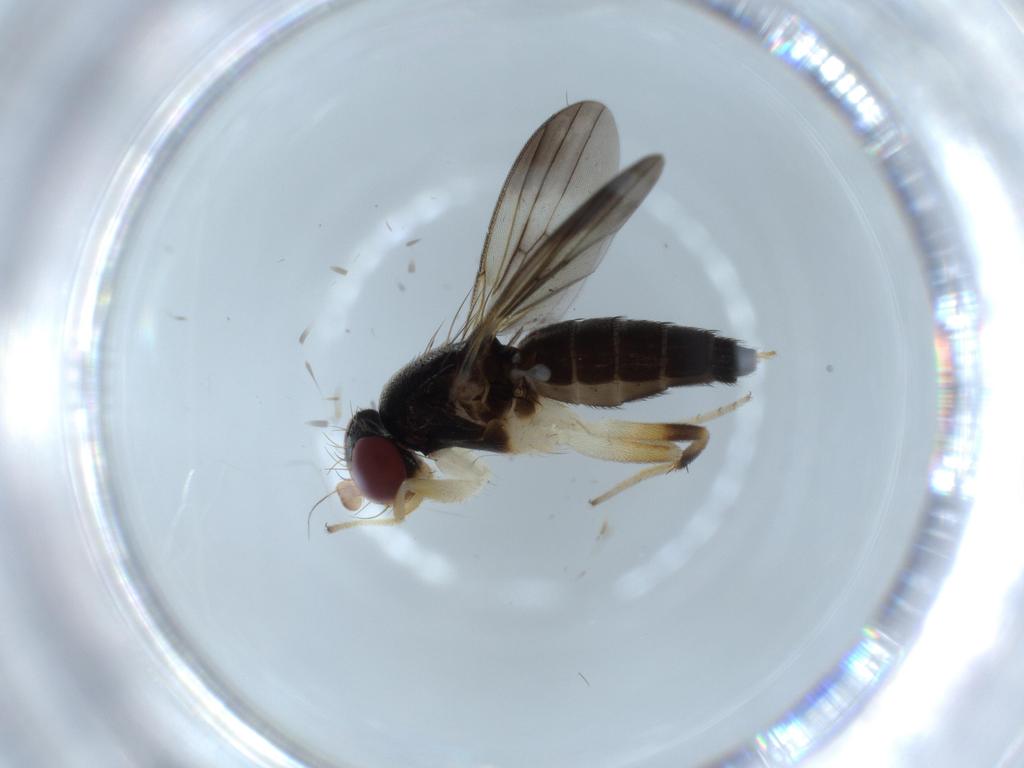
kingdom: Animalia
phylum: Arthropoda
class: Insecta
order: Diptera
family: Clusiidae
